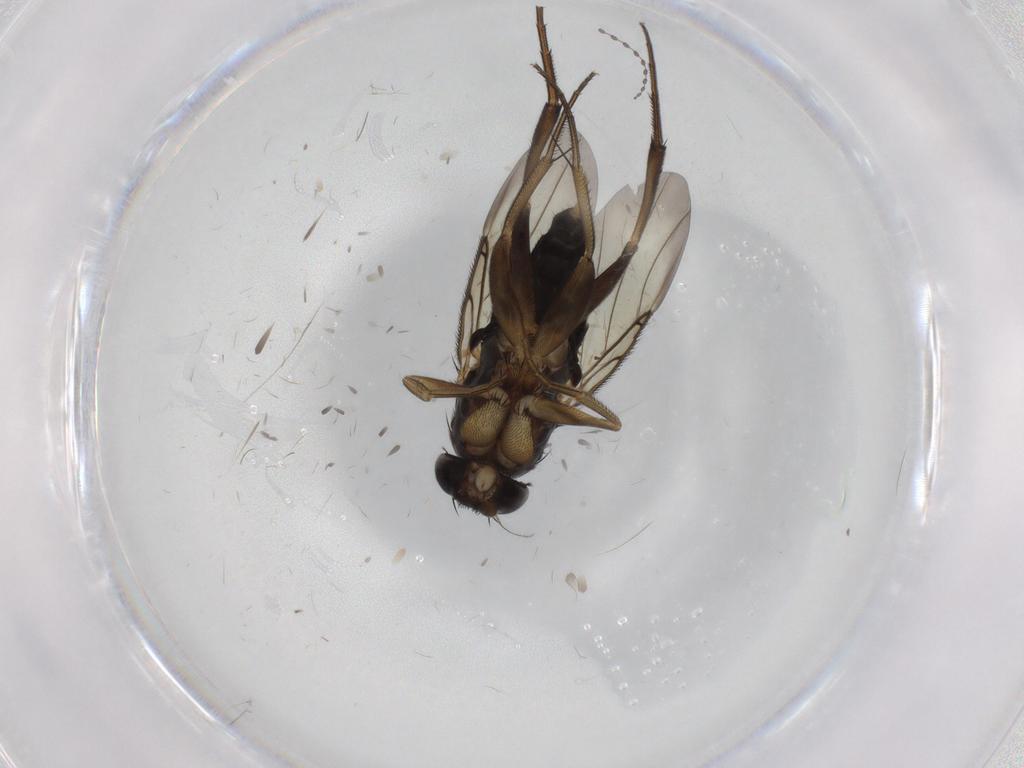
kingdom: Animalia
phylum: Arthropoda
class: Insecta
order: Diptera
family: Phoridae
